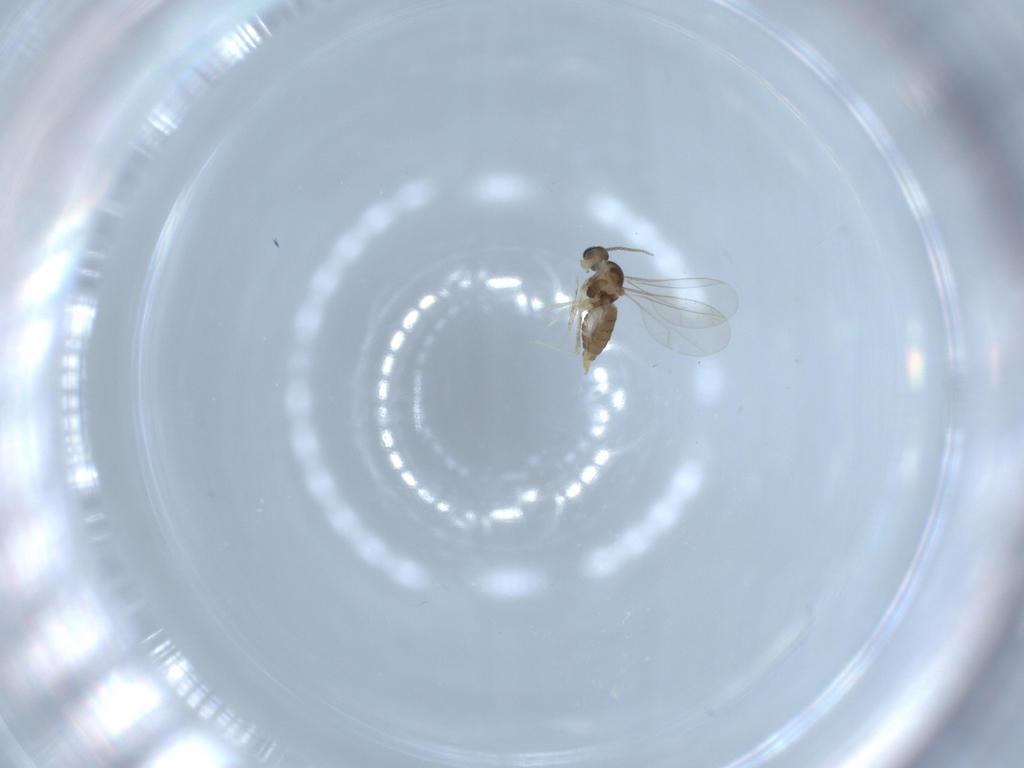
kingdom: Animalia
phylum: Arthropoda
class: Insecta
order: Diptera
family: Cecidomyiidae
